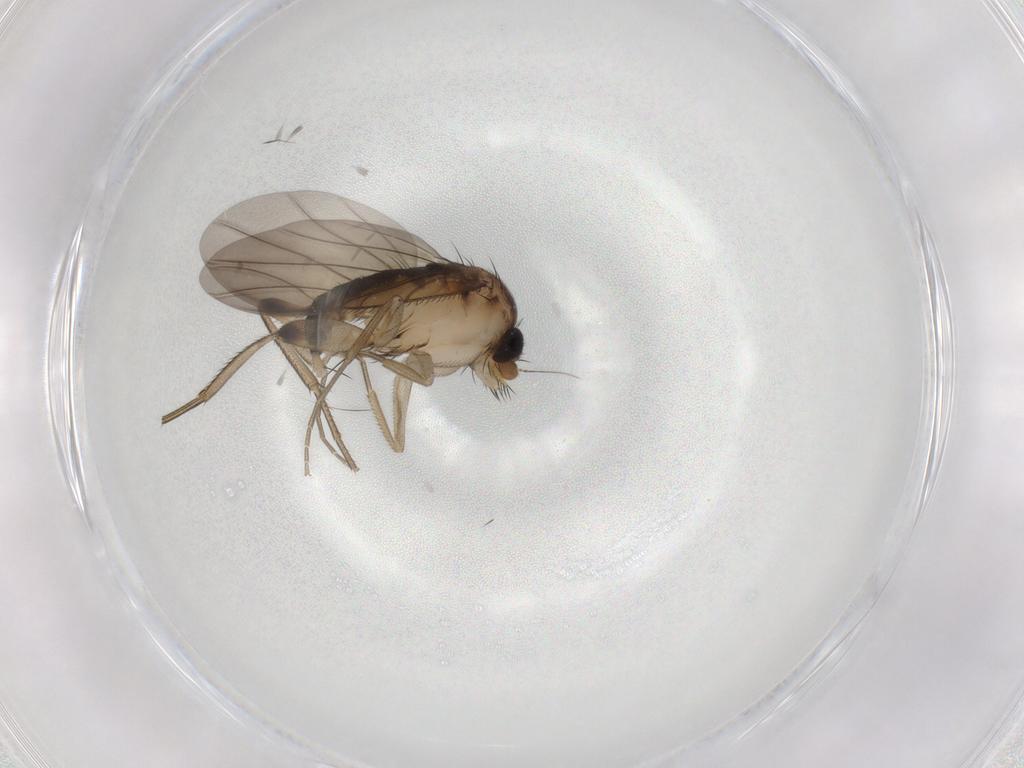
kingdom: Animalia
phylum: Arthropoda
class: Insecta
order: Diptera
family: Phoridae
